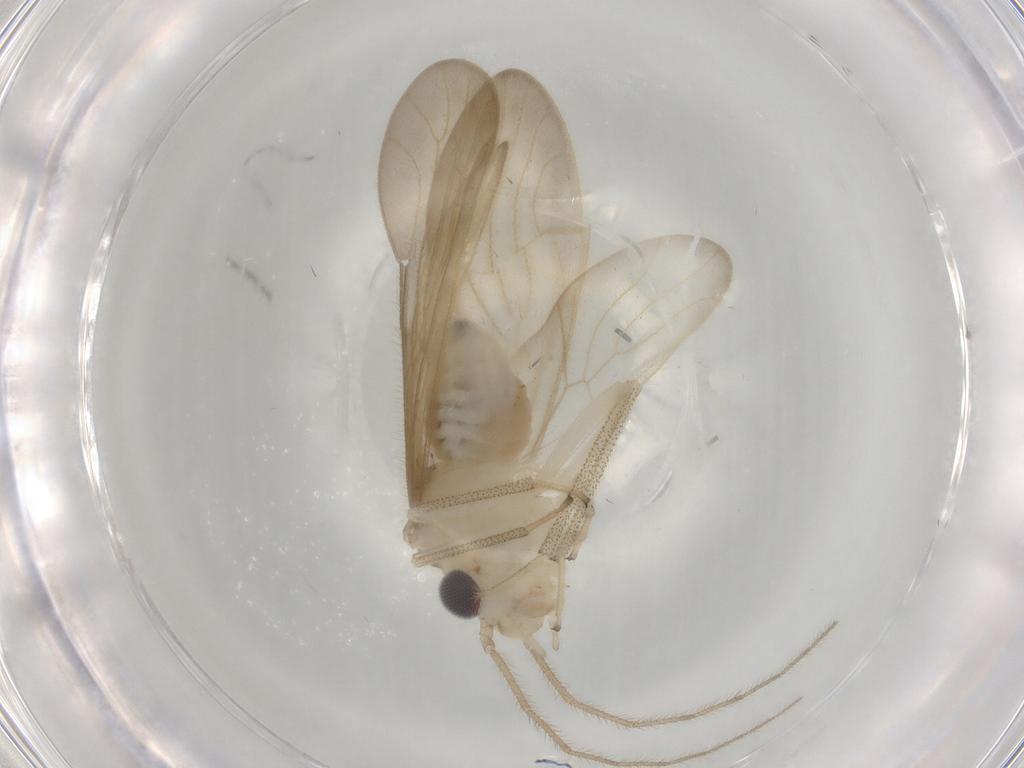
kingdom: Animalia
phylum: Arthropoda
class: Insecta
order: Psocodea
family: Amphipsocidae
